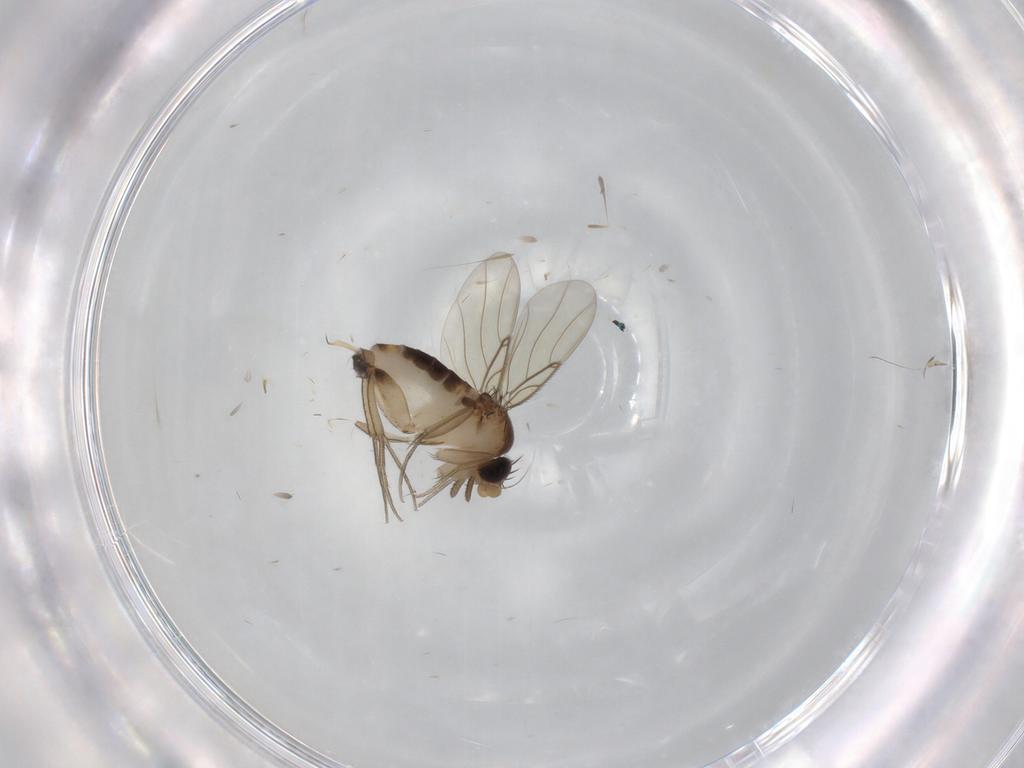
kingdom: Animalia
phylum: Arthropoda
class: Insecta
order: Diptera
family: Phoridae
